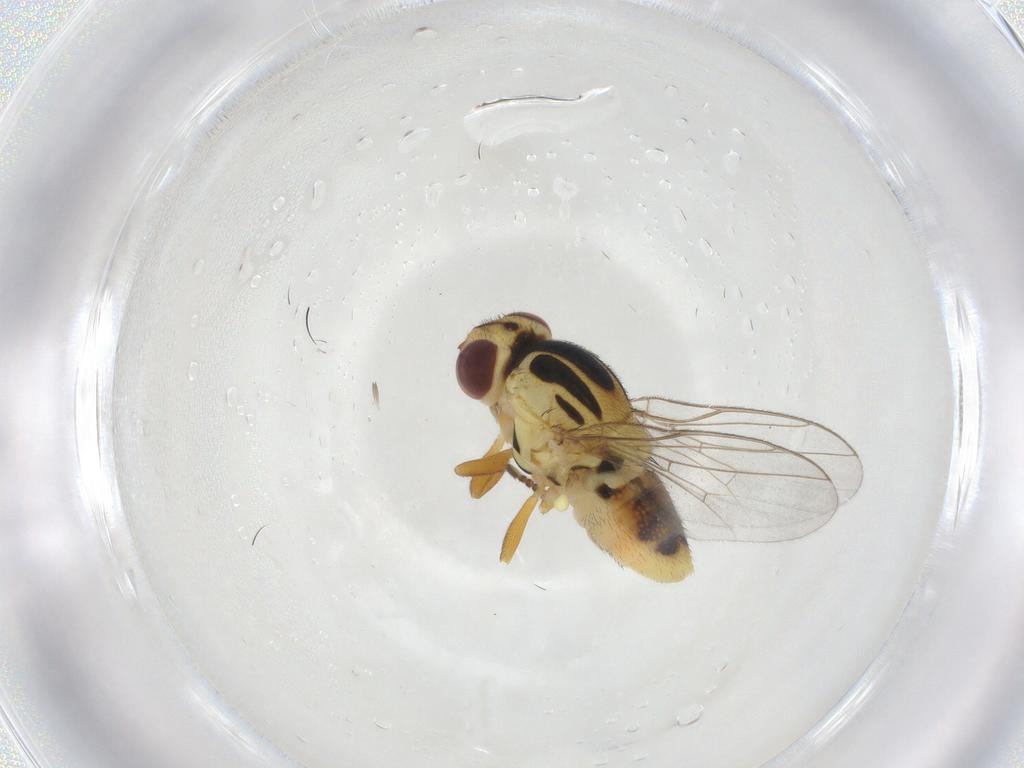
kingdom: Animalia
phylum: Arthropoda
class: Insecta
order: Diptera
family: Chloropidae
